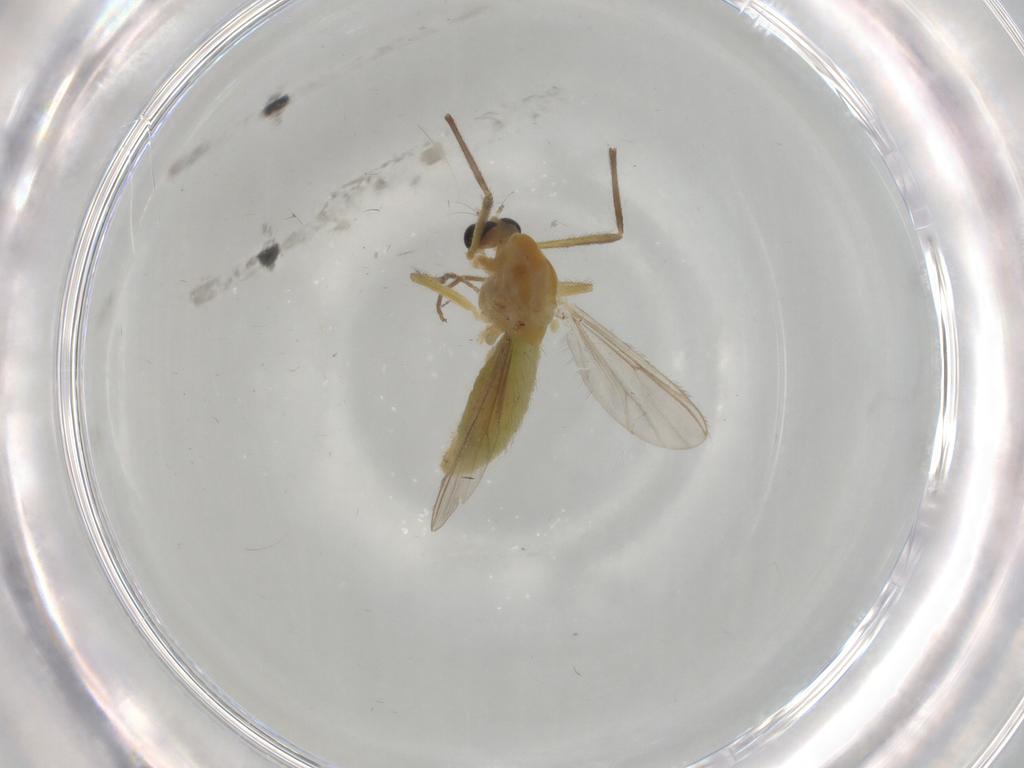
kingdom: Animalia
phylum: Arthropoda
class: Insecta
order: Diptera
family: Chironomidae
